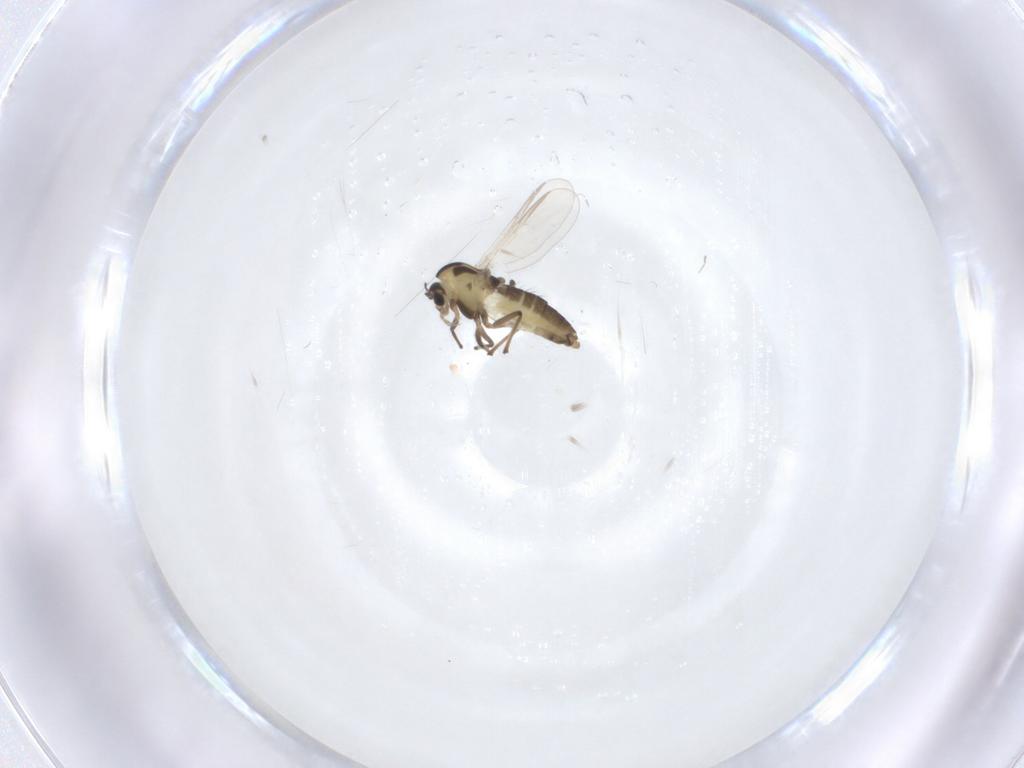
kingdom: Animalia
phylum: Arthropoda
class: Insecta
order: Diptera
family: Chironomidae
